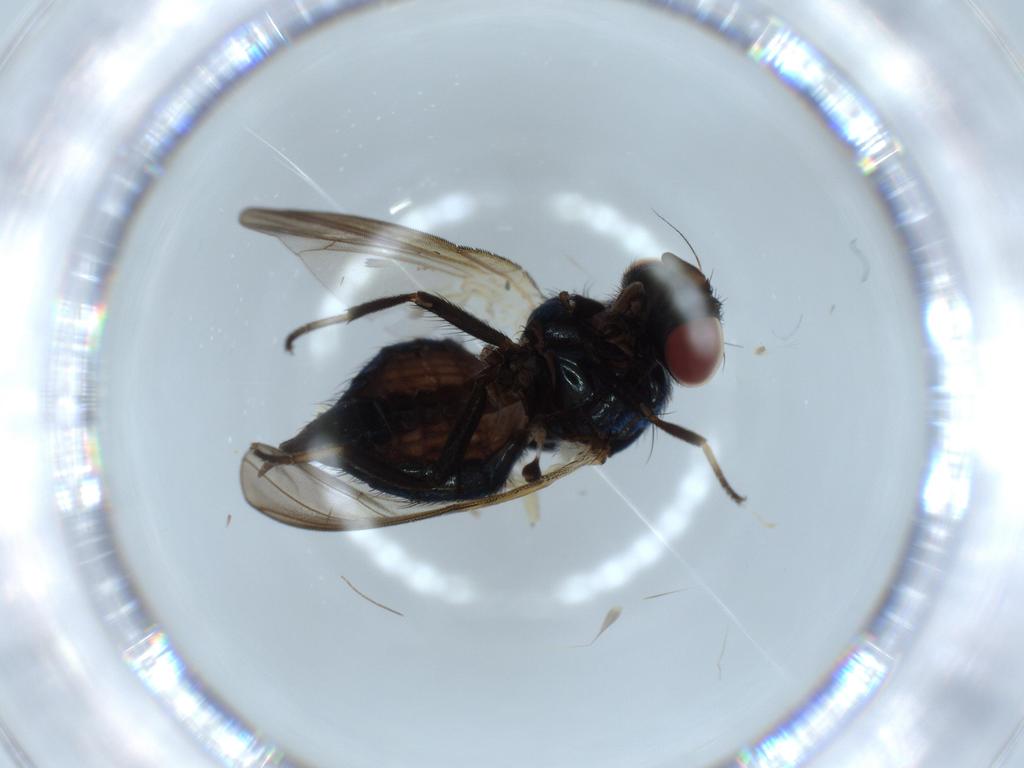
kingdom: Animalia
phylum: Arthropoda
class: Insecta
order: Diptera
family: Lonchaeidae
